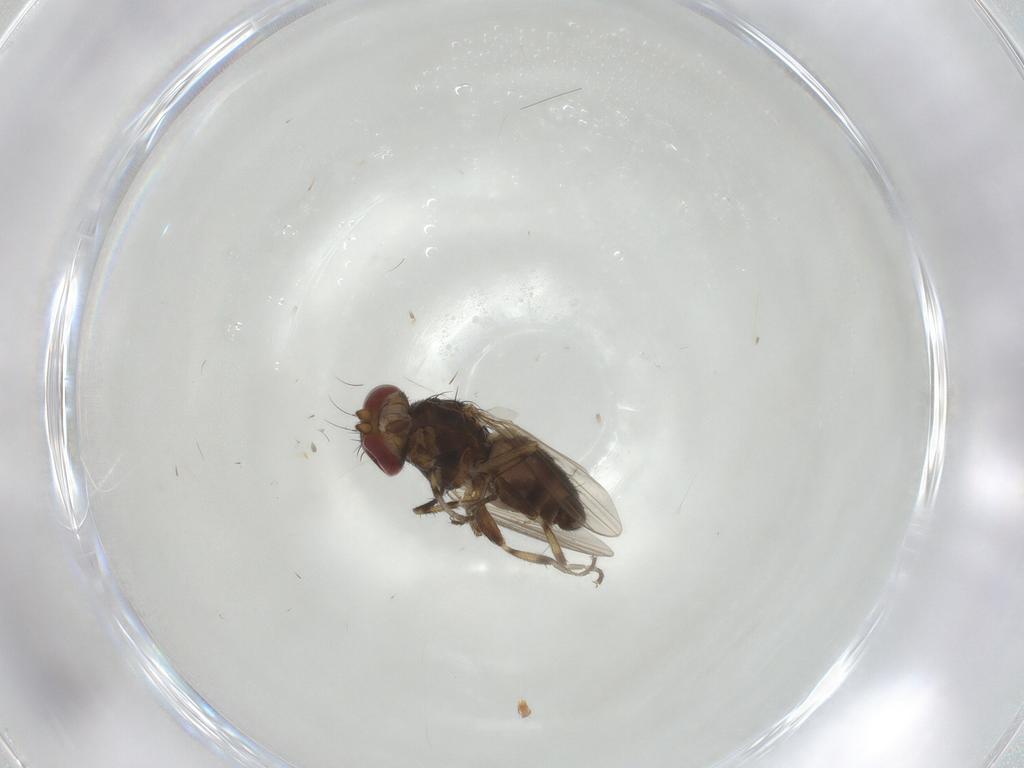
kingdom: Animalia
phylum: Arthropoda
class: Insecta
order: Diptera
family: Heleomyzidae
